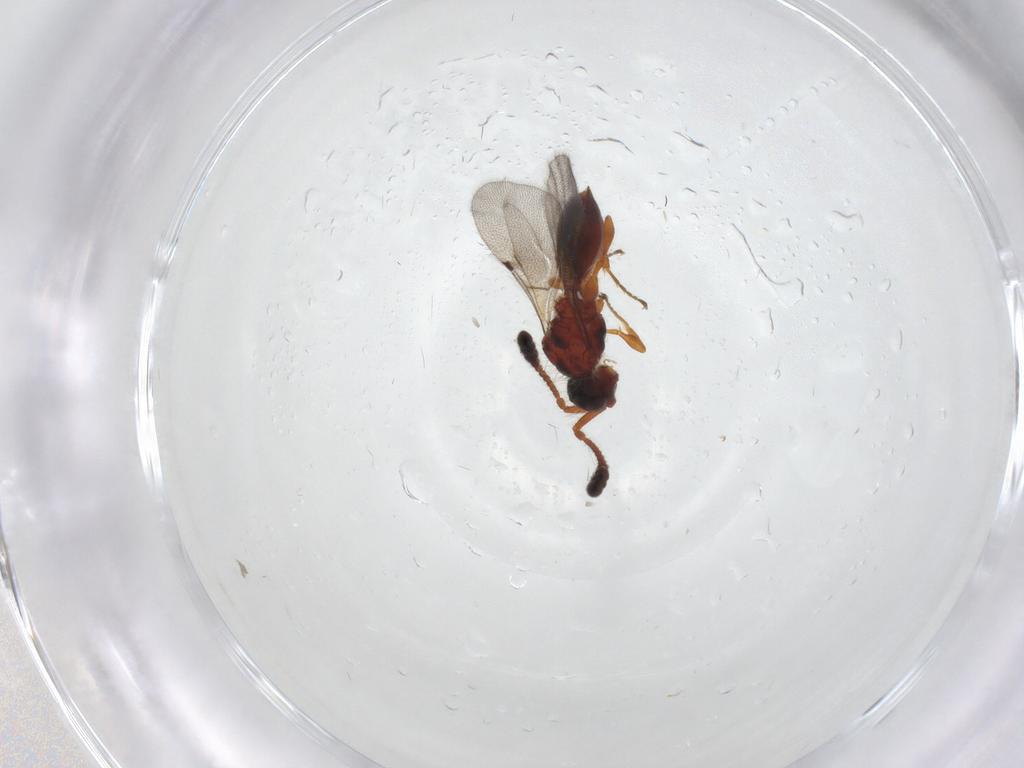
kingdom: Animalia
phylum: Arthropoda
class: Insecta
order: Hymenoptera
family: Diapriidae
